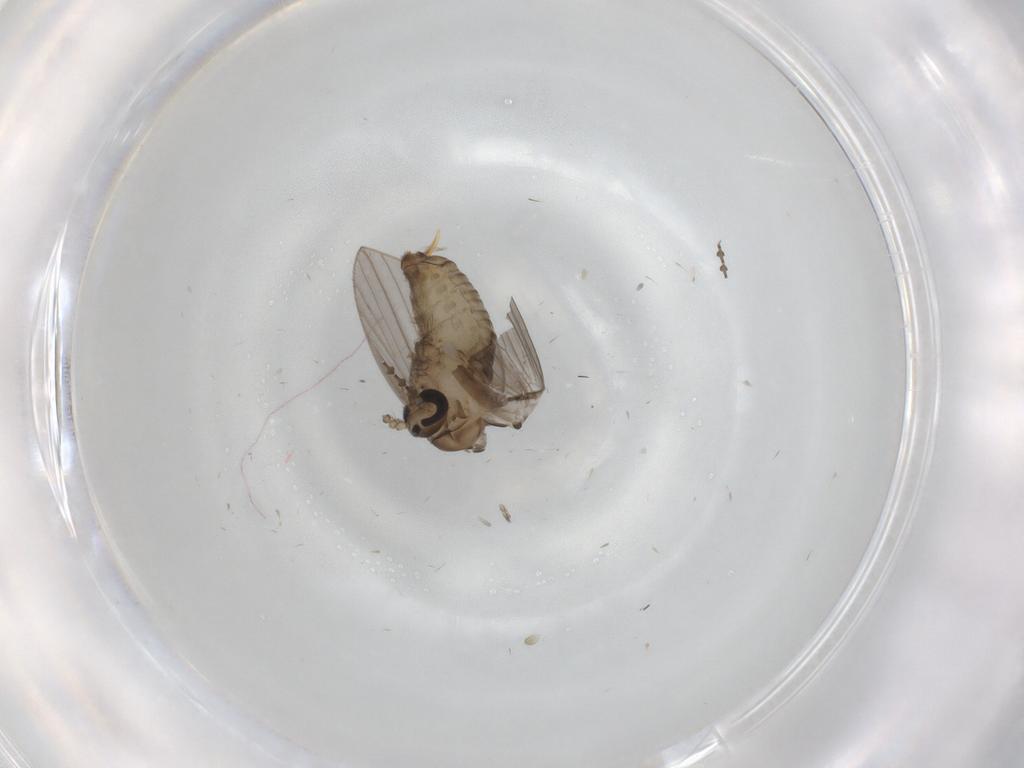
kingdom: Animalia
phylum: Arthropoda
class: Insecta
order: Diptera
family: Psychodidae
